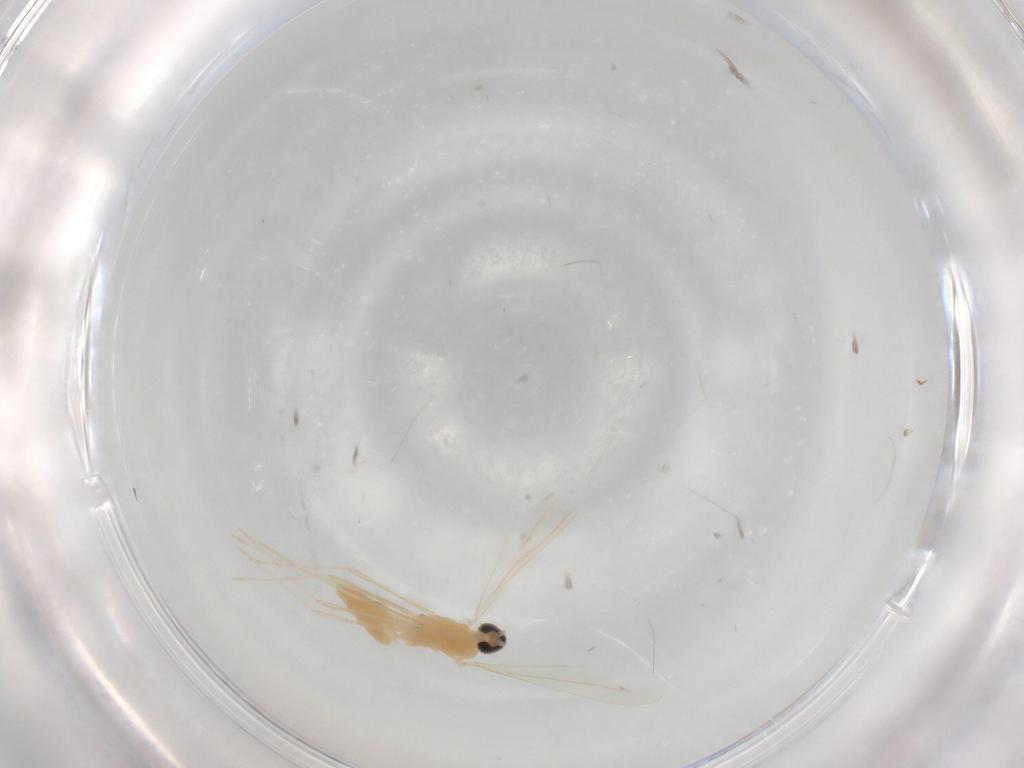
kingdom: Animalia
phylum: Arthropoda
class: Insecta
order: Diptera
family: Cecidomyiidae
